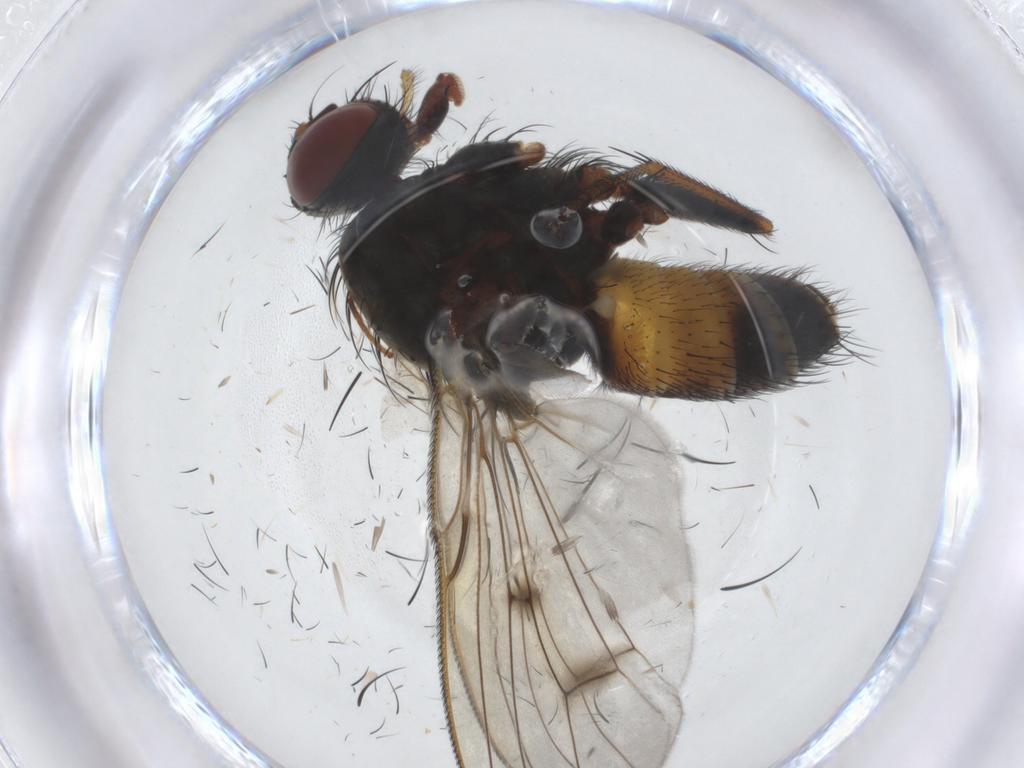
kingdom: Animalia
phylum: Arthropoda
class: Insecta
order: Diptera
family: Muscidae
